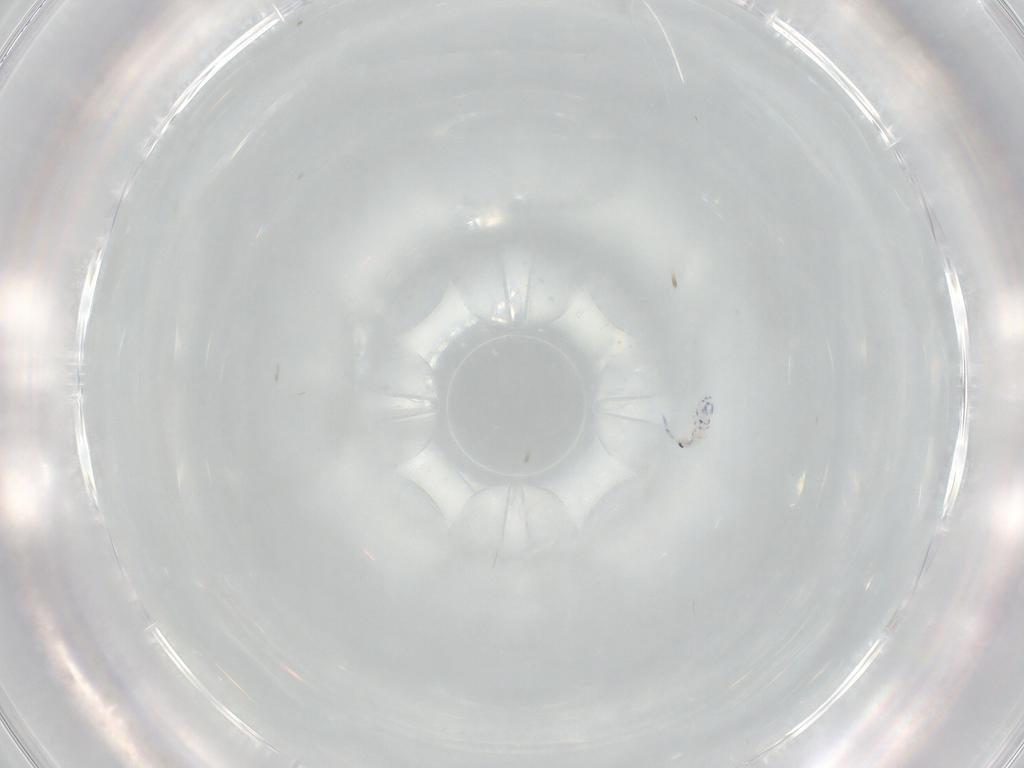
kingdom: Animalia
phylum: Arthropoda
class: Collembola
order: Entomobryomorpha
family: Entomobryidae
